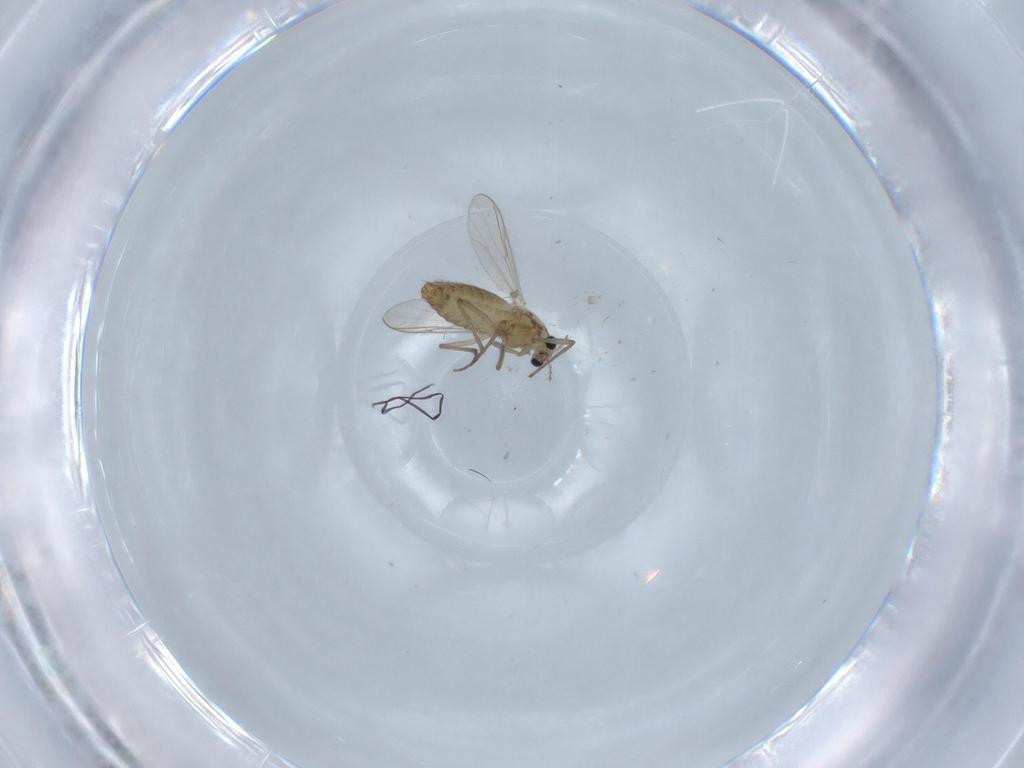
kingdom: Animalia
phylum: Arthropoda
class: Insecta
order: Diptera
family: Chironomidae
